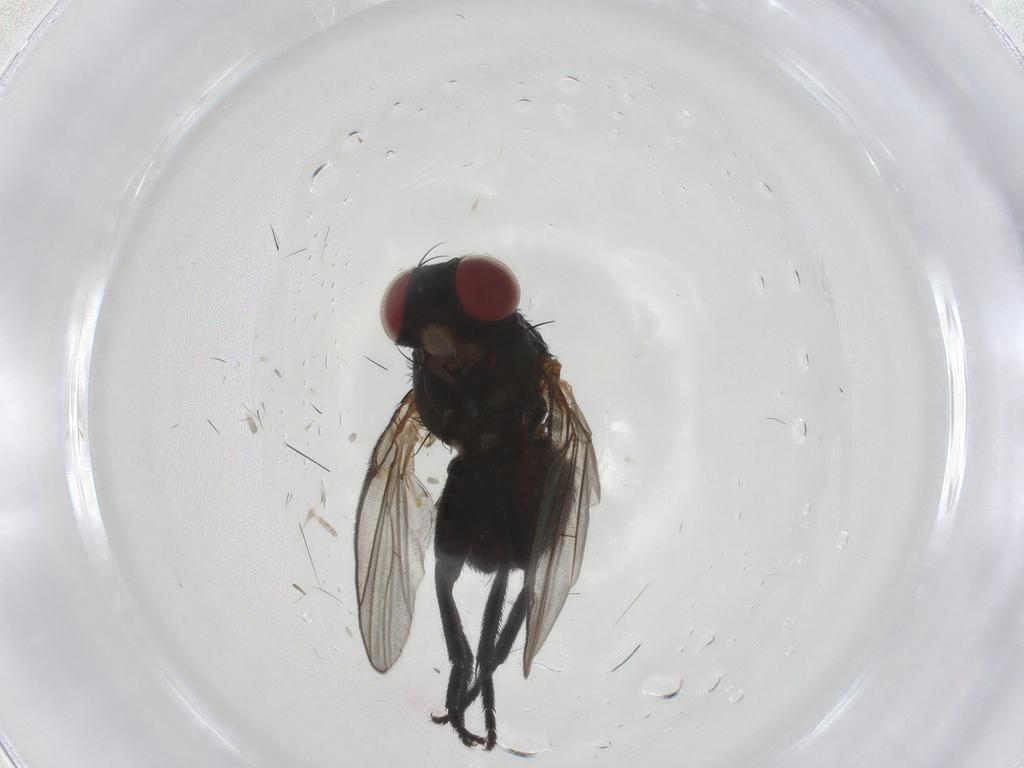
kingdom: Animalia
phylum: Arthropoda
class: Insecta
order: Diptera
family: Agromyzidae
